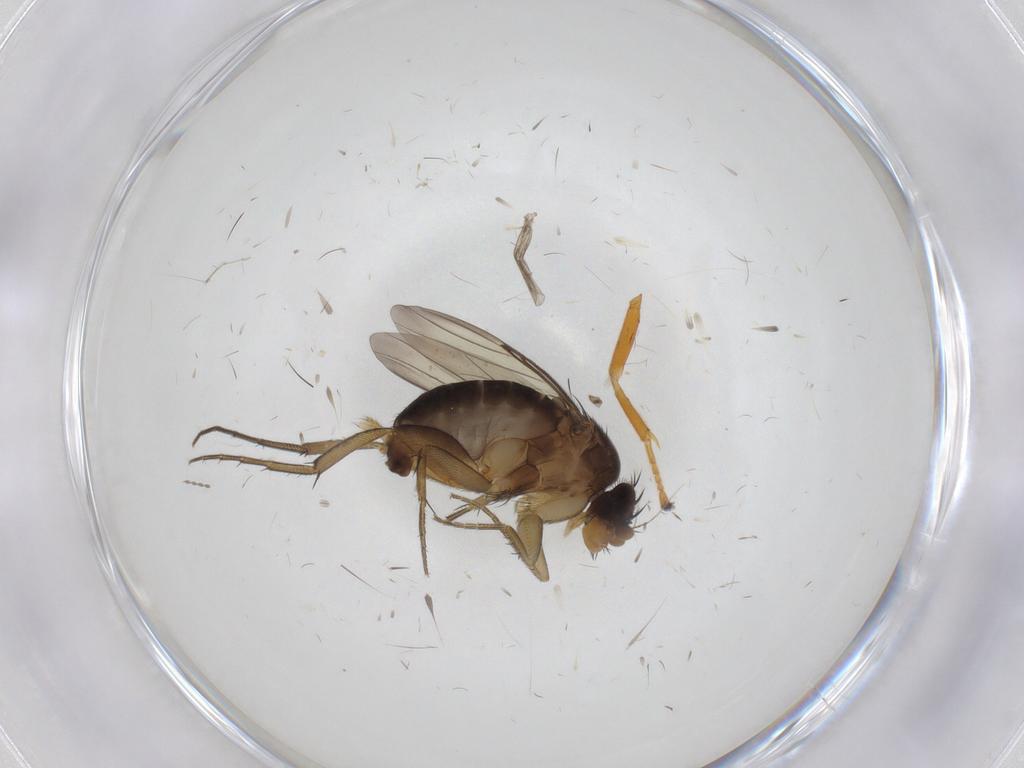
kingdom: Animalia
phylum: Arthropoda
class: Insecta
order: Diptera
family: Phoridae
